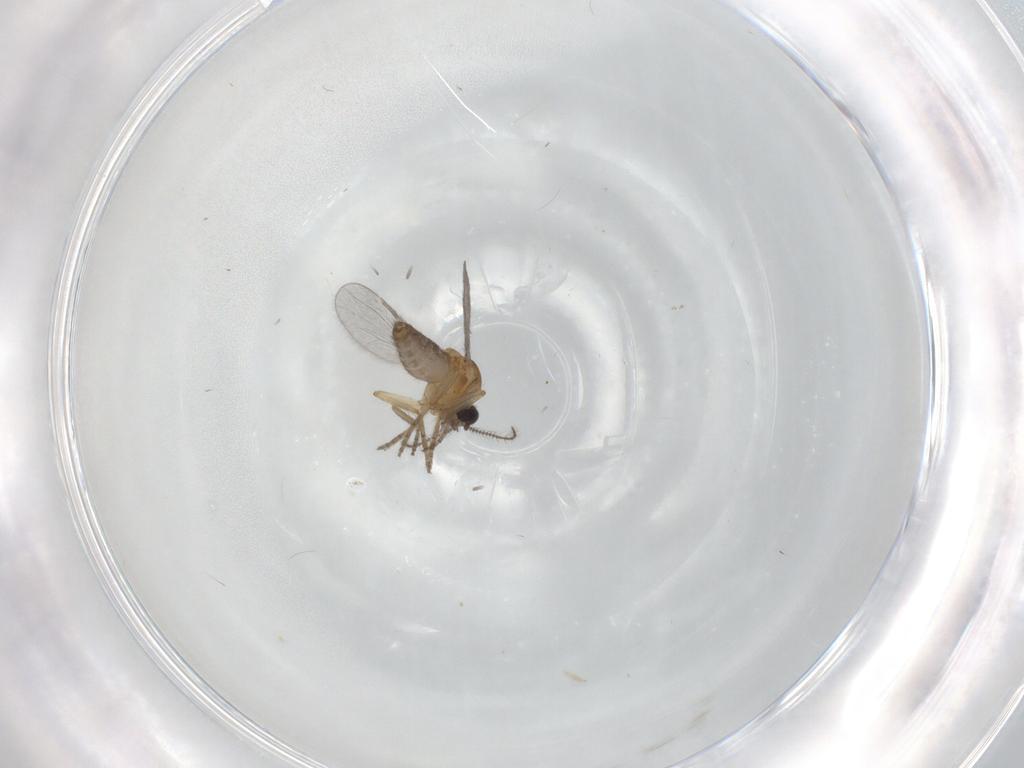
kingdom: Animalia
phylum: Arthropoda
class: Insecta
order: Diptera
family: Ceratopogonidae
